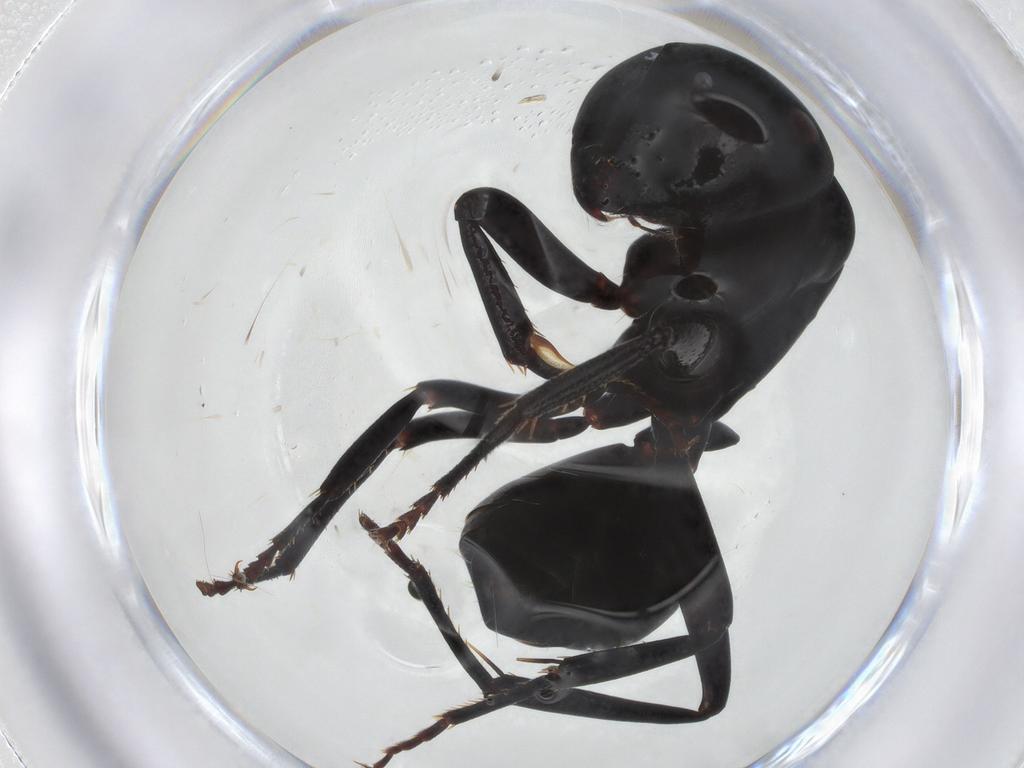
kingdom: Animalia
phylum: Arthropoda
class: Insecta
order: Hymenoptera
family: Formicidae
